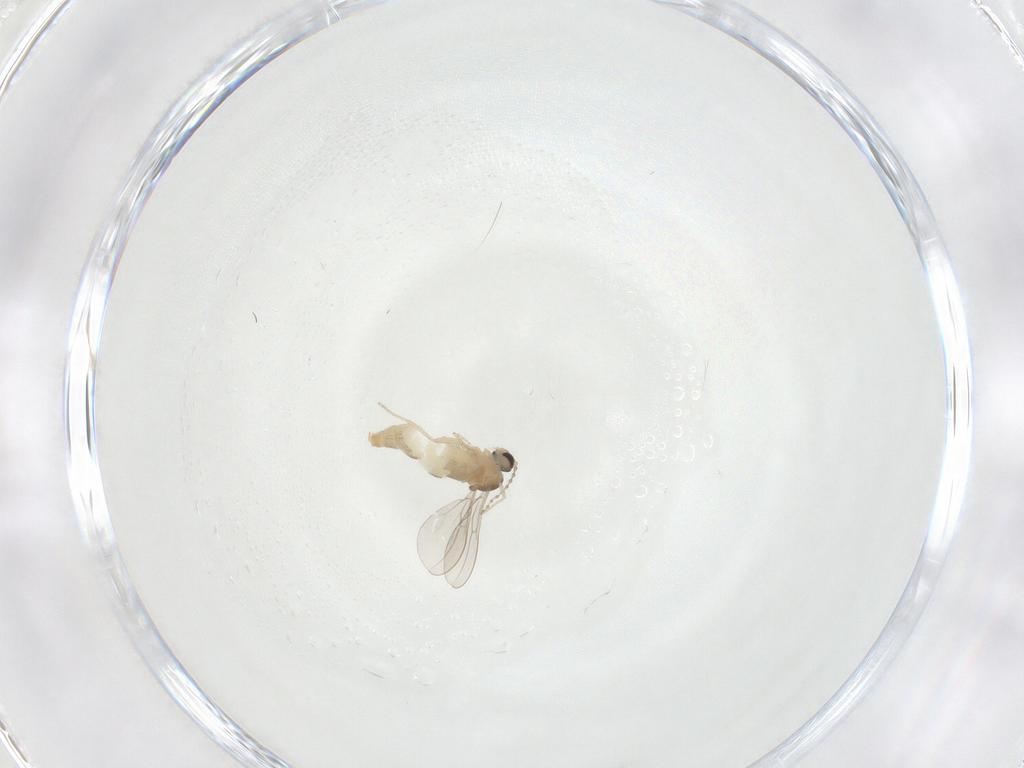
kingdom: Animalia
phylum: Arthropoda
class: Insecta
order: Diptera
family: Cecidomyiidae
